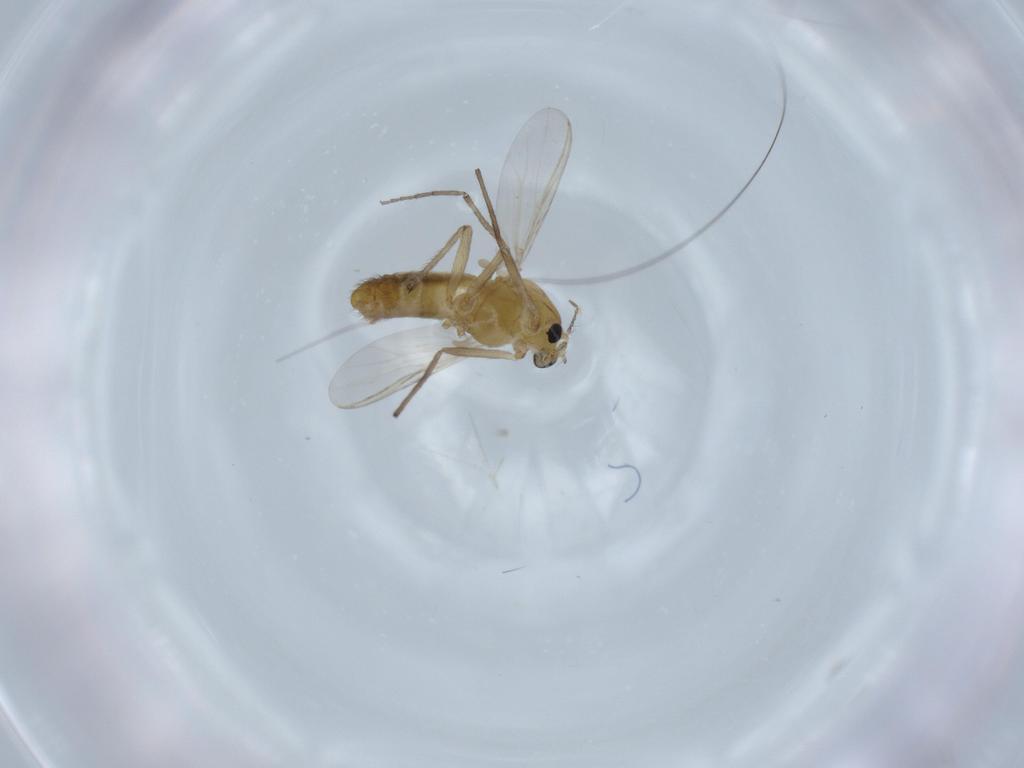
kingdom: Animalia
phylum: Arthropoda
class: Insecta
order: Diptera
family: Chironomidae
